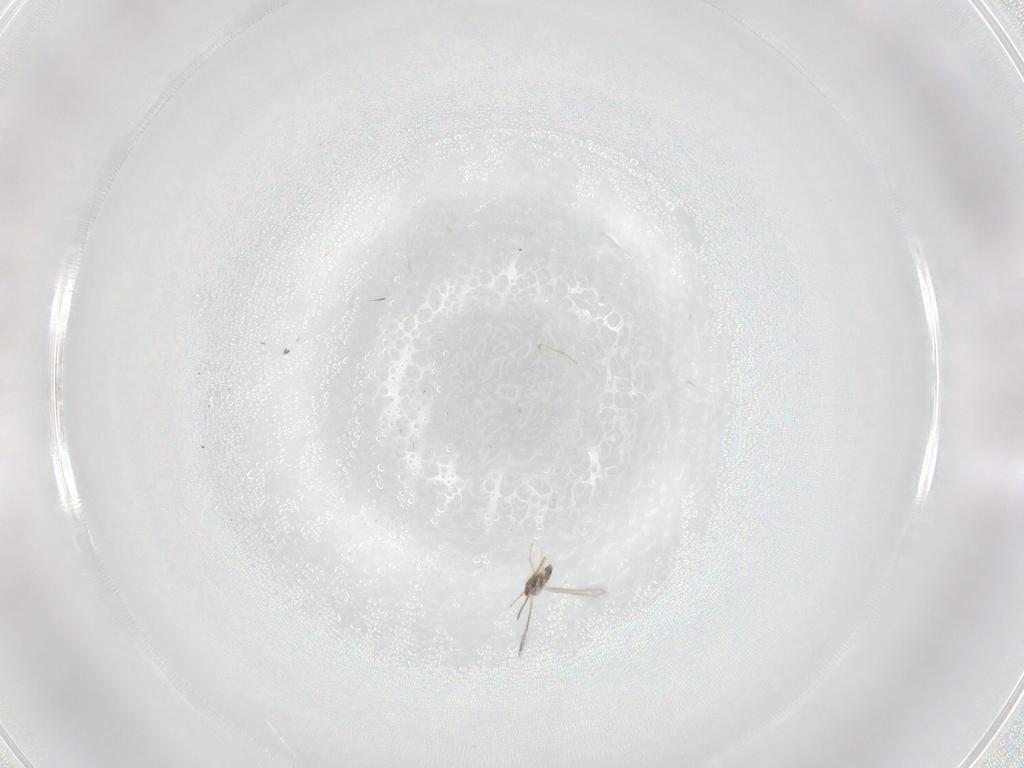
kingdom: Animalia
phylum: Arthropoda
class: Insecta
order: Hymenoptera
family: Mymaridae
